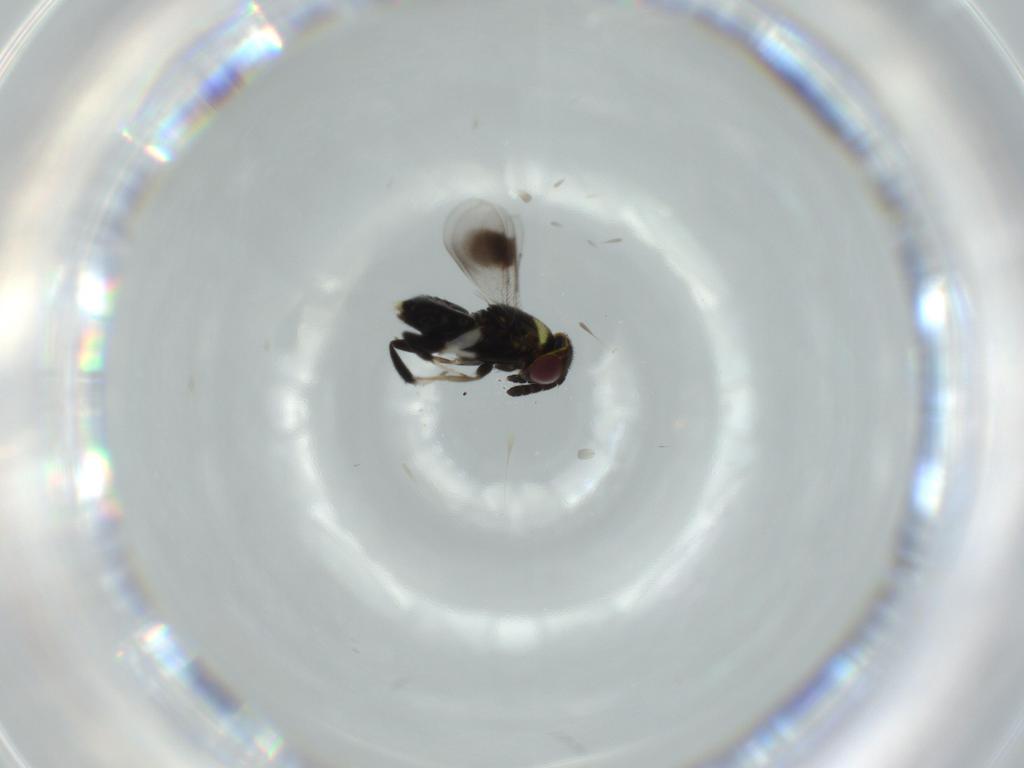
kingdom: Animalia
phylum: Arthropoda
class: Insecta
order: Hymenoptera
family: Aphelinidae
